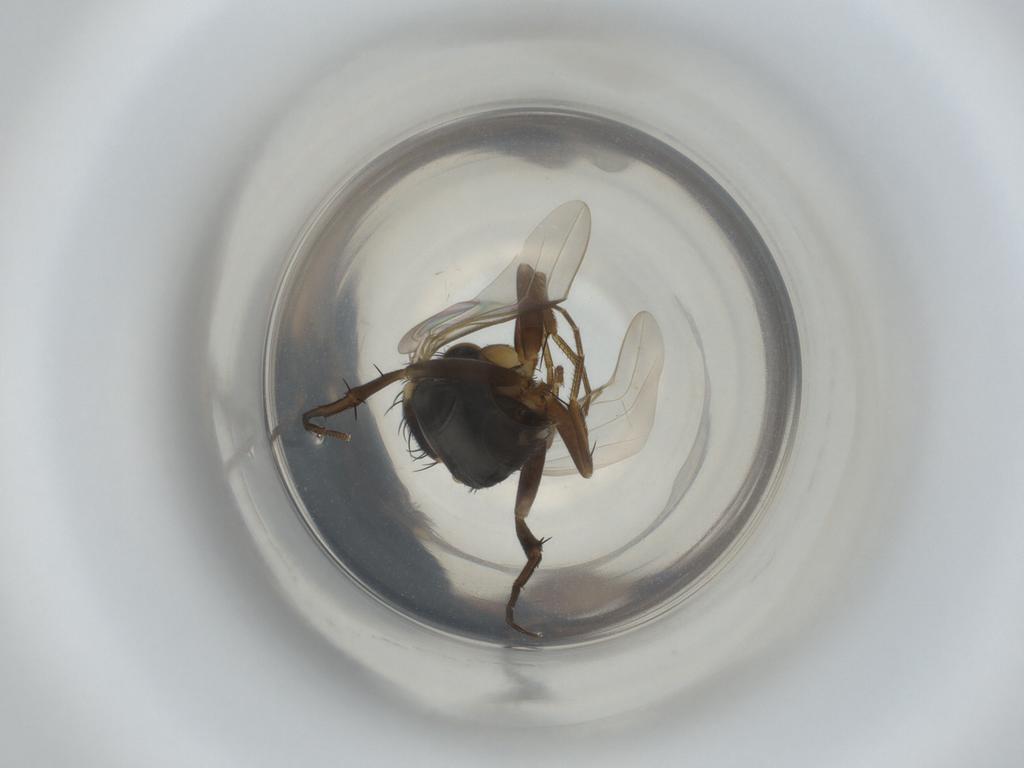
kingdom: Animalia
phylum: Arthropoda
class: Insecta
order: Diptera
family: Phoridae
